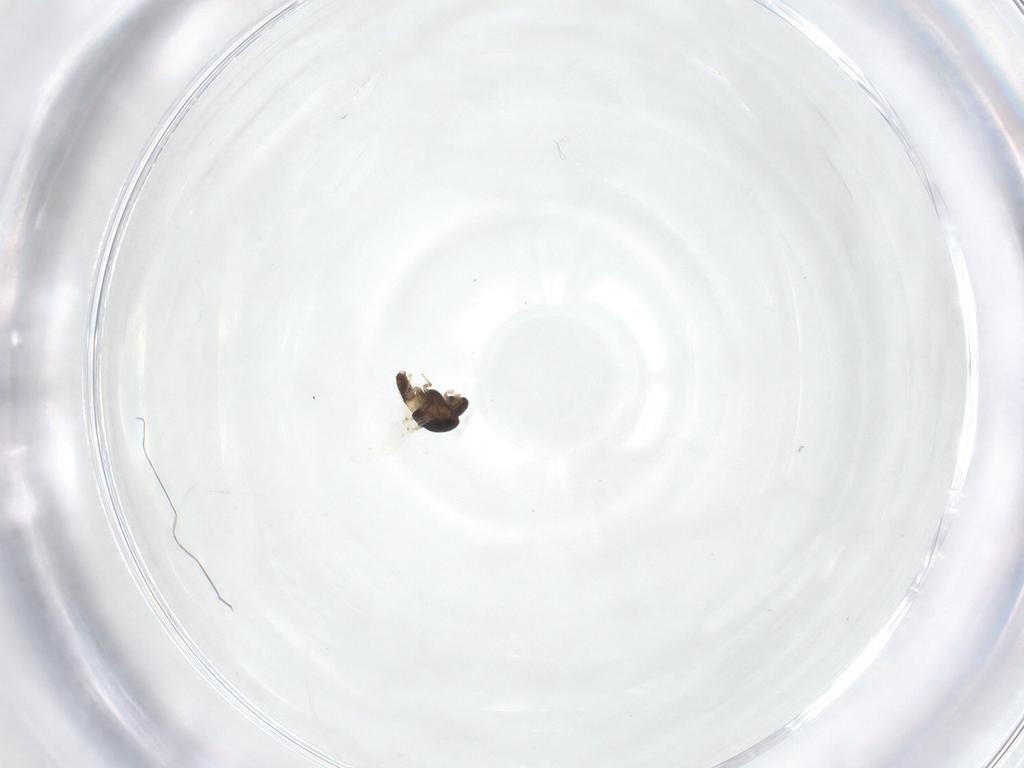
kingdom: Animalia
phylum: Arthropoda
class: Insecta
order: Diptera
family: Chironomidae
